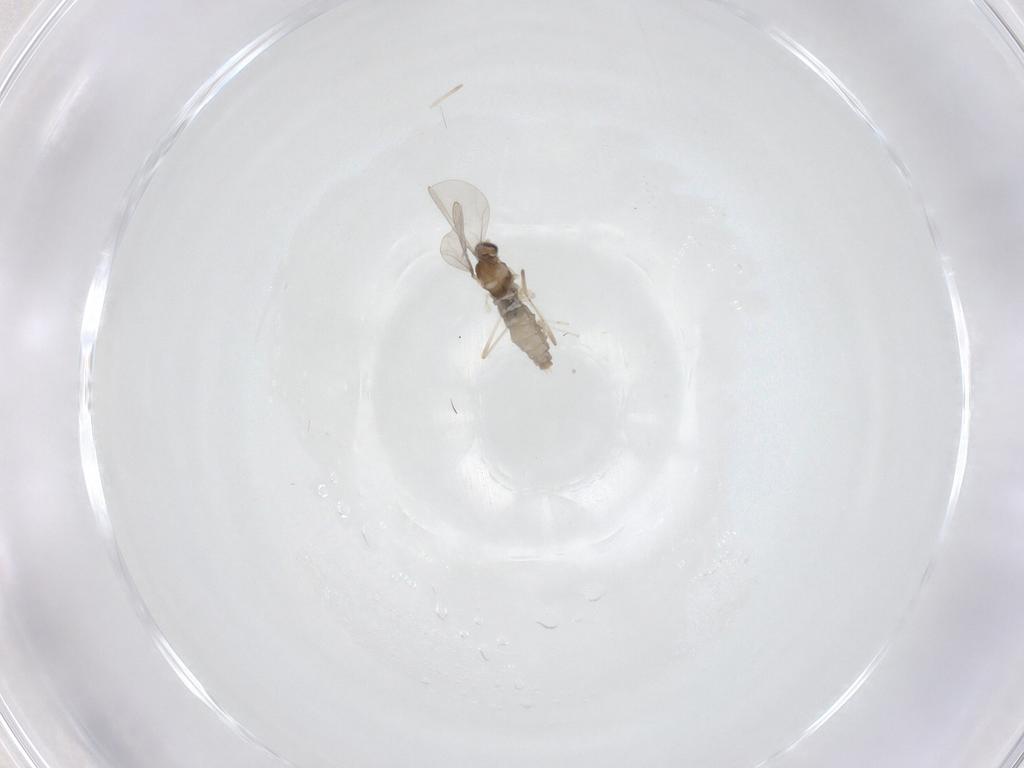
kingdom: Animalia
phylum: Arthropoda
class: Insecta
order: Diptera
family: Cecidomyiidae
